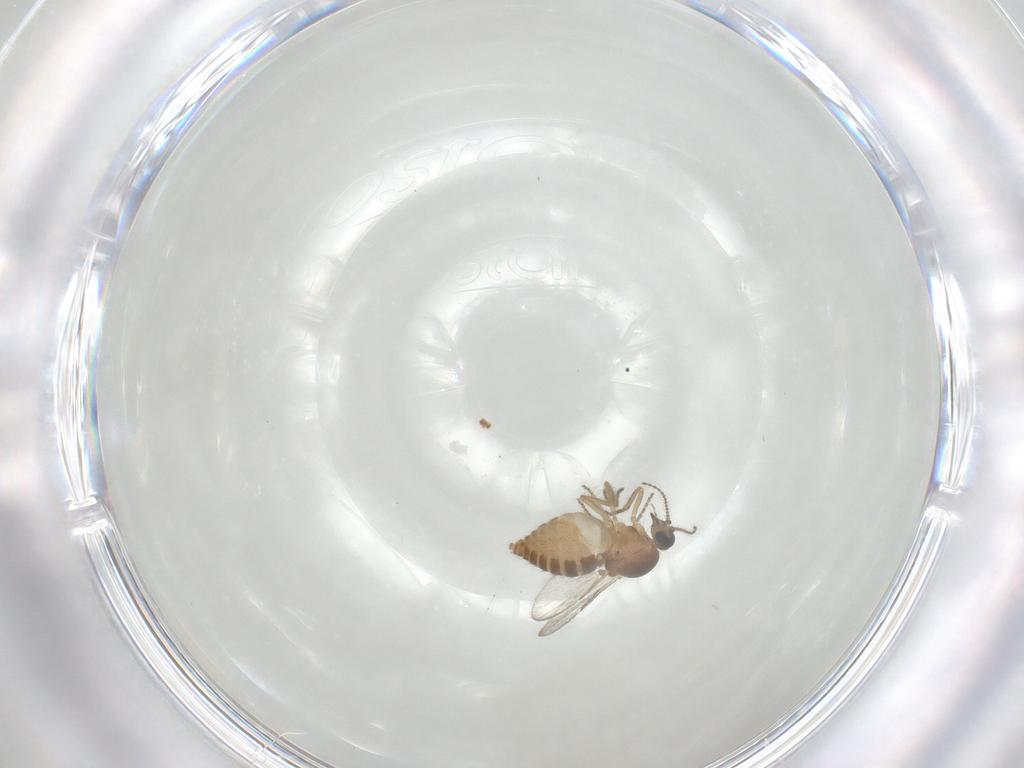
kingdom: Animalia
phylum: Arthropoda
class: Insecta
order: Diptera
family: Ceratopogonidae
